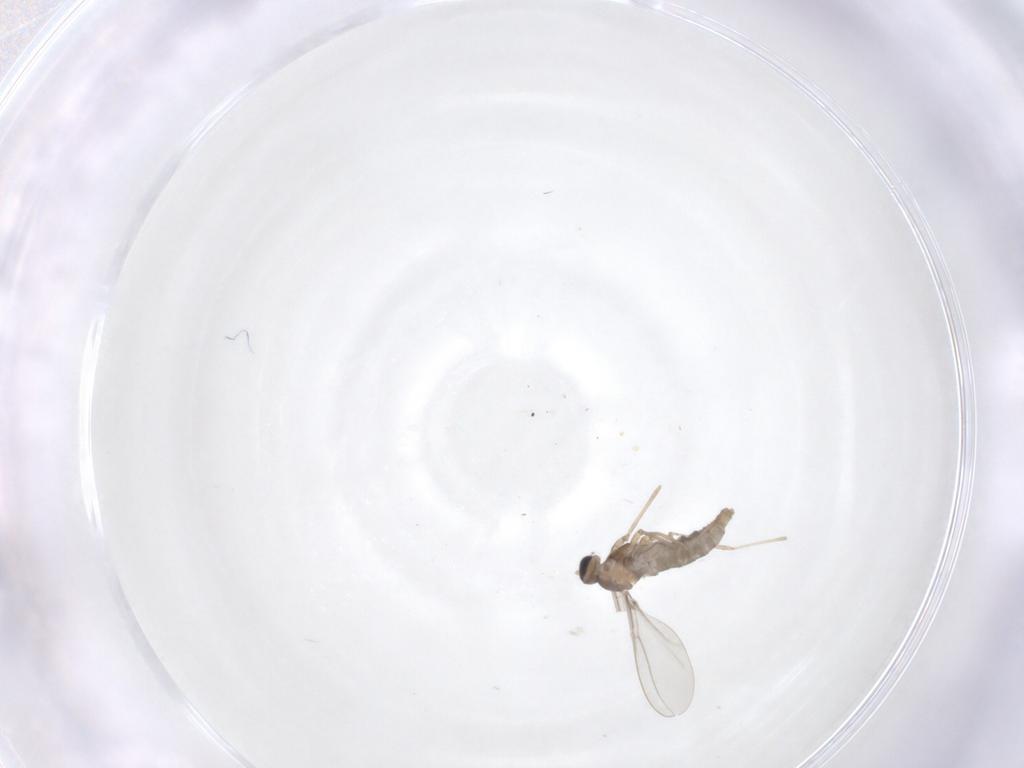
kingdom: Animalia
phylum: Arthropoda
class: Insecta
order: Diptera
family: Cecidomyiidae
